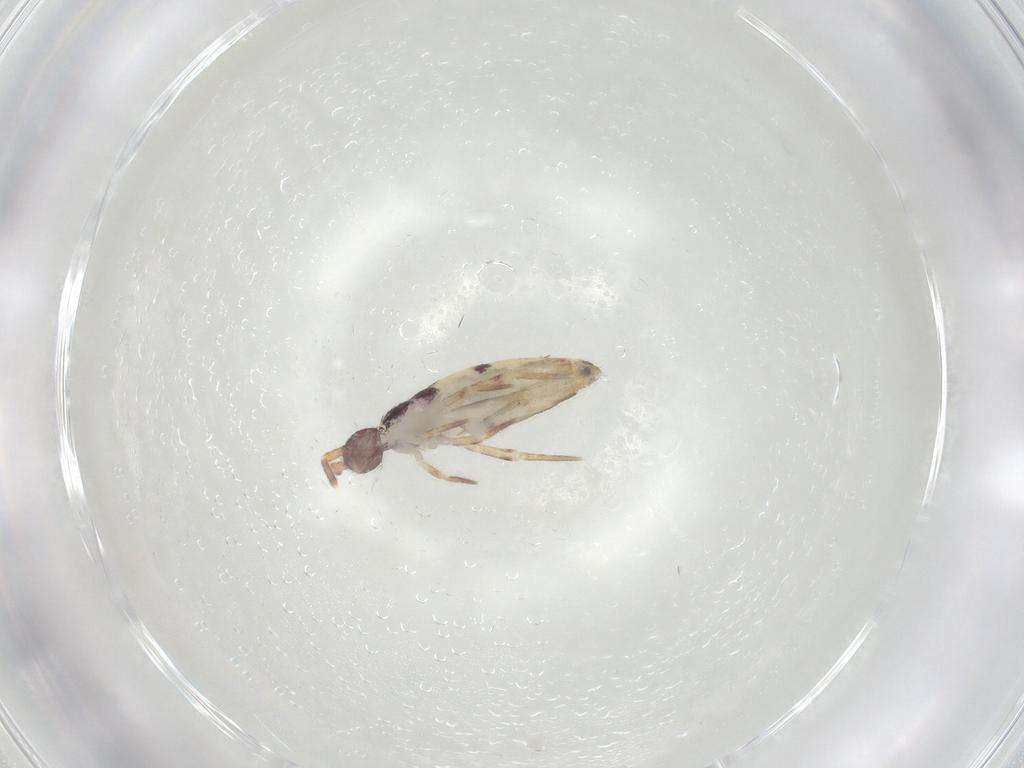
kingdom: Animalia
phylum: Arthropoda
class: Collembola
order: Entomobryomorpha
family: Entomobryidae
